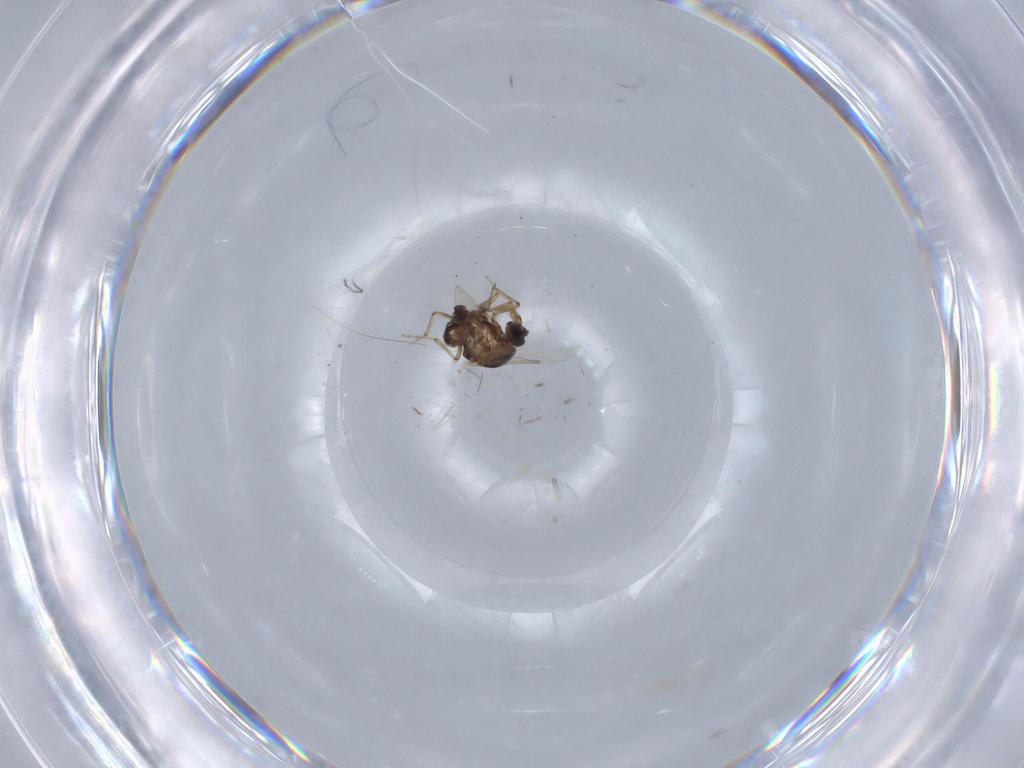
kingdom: Animalia
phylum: Arthropoda
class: Insecta
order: Diptera
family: Ceratopogonidae
